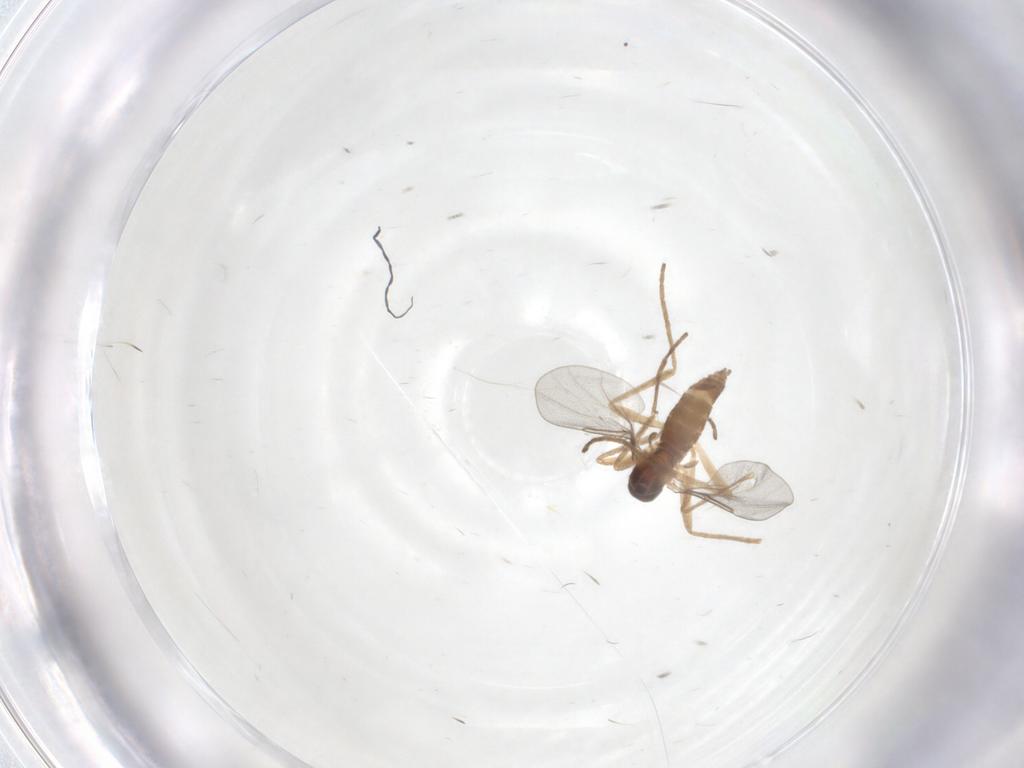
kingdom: Animalia
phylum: Arthropoda
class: Insecta
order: Diptera
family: Cecidomyiidae
